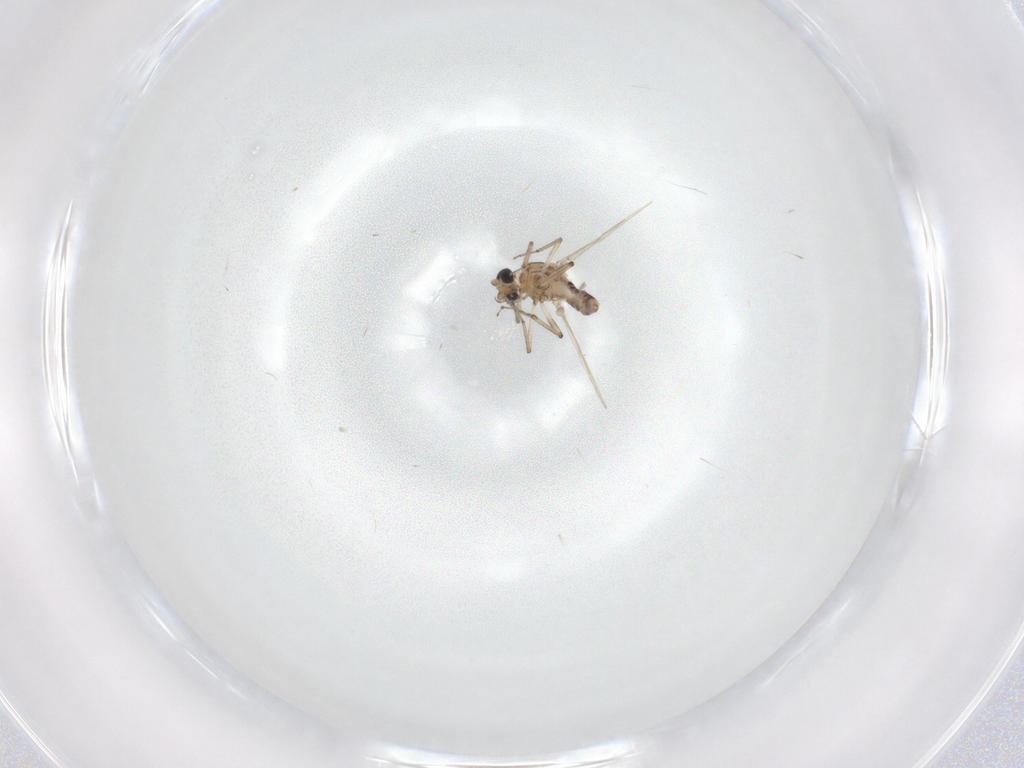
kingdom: Animalia
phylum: Arthropoda
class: Insecta
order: Diptera
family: Ceratopogonidae
